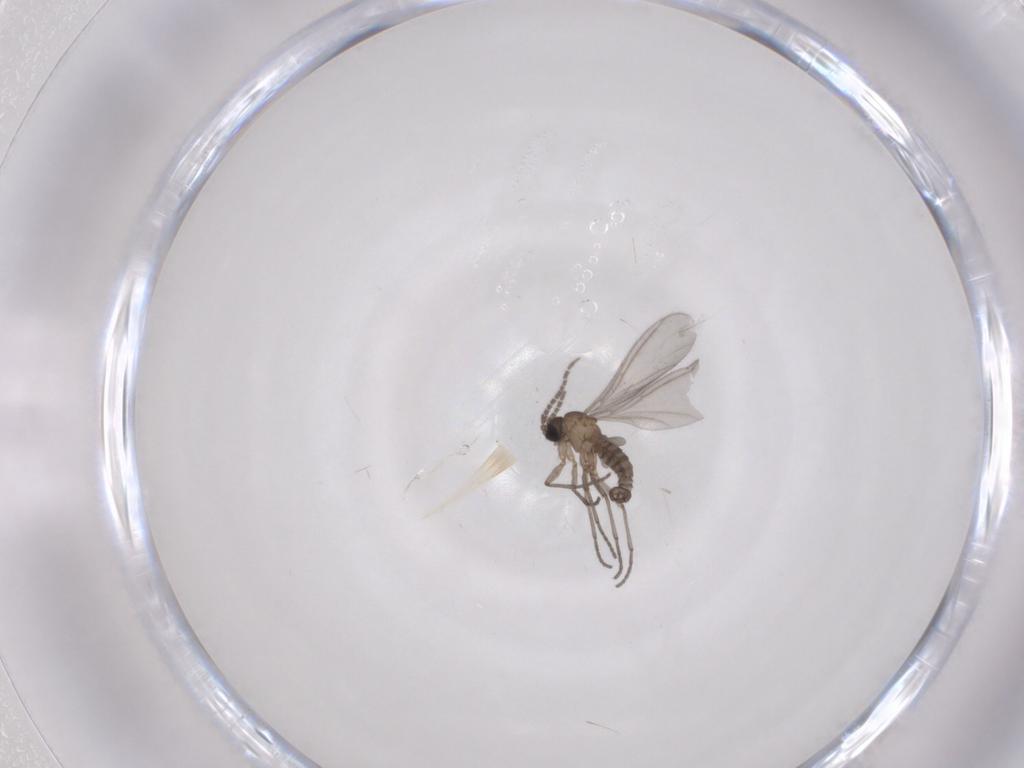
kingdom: Animalia
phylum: Arthropoda
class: Insecta
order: Diptera
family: Sciaridae
